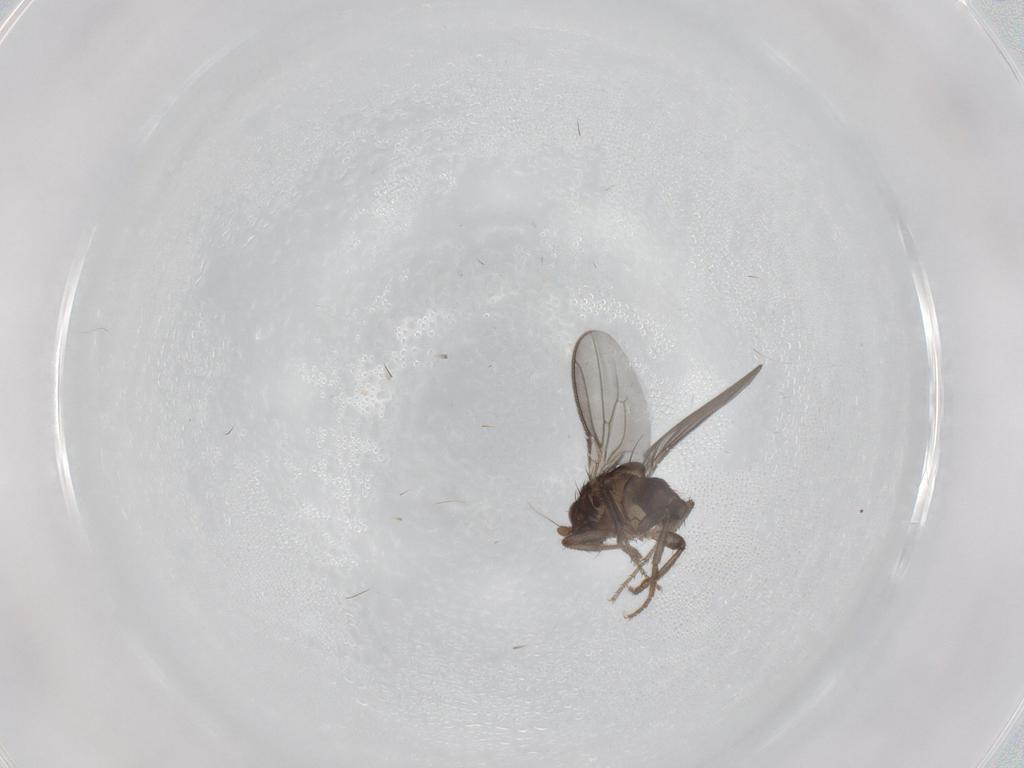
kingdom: Animalia
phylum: Arthropoda
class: Insecta
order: Diptera
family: Sphaeroceridae
